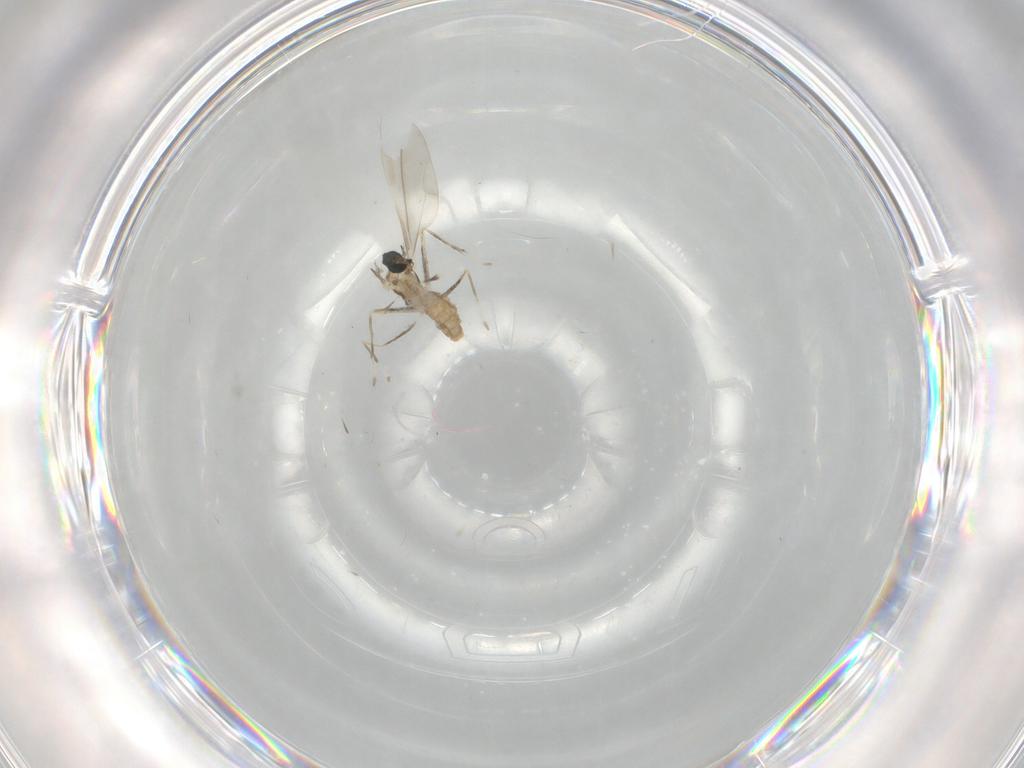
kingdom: Animalia
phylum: Arthropoda
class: Insecta
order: Diptera
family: Cecidomyiidae
